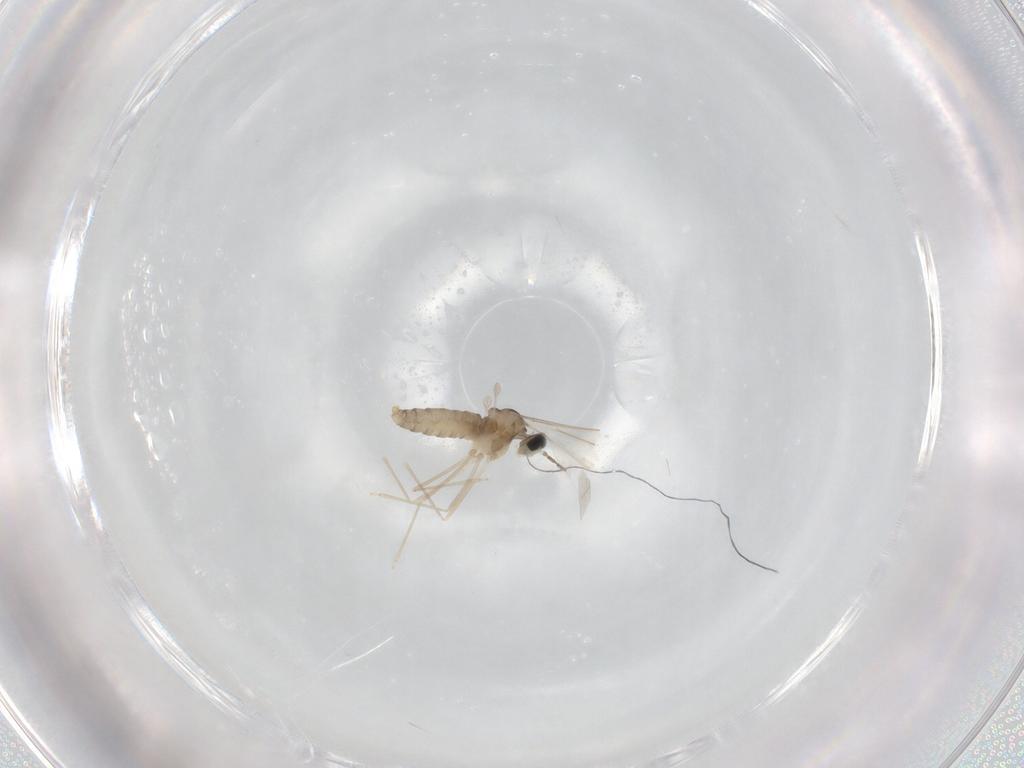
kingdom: Animalia
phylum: Arthropoda
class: Insecta
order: Diptera
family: Cecidomyiidae
